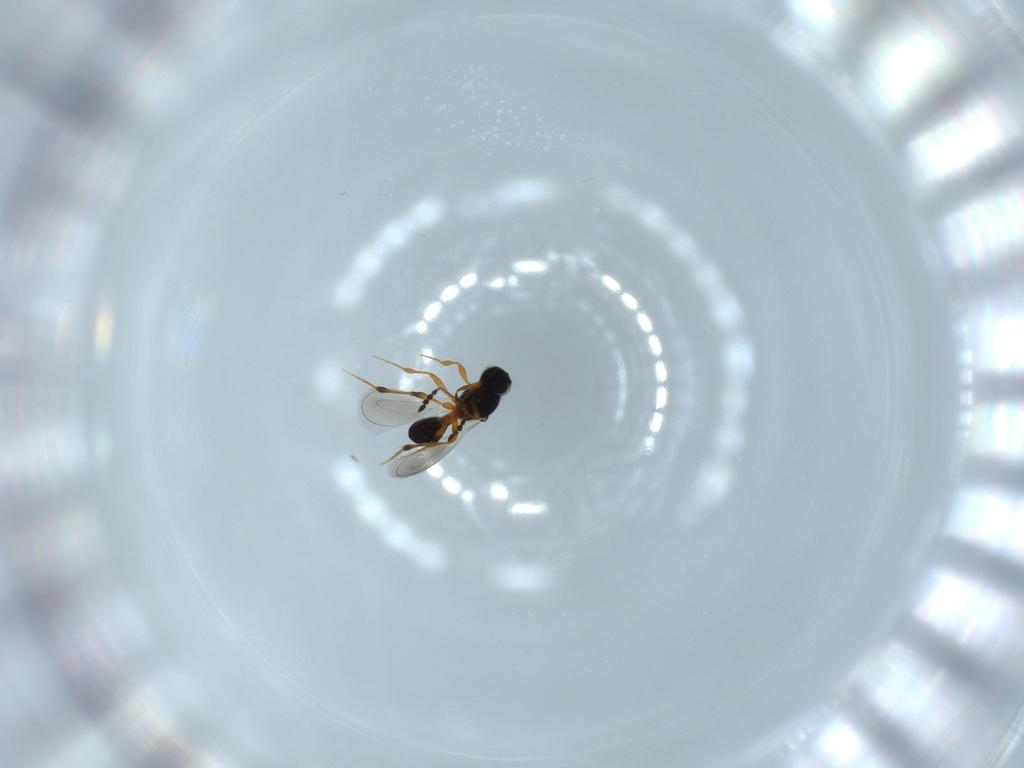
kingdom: Animalia
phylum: Arthropoda
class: Insecta
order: Hymenoptera
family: Platygastridae
